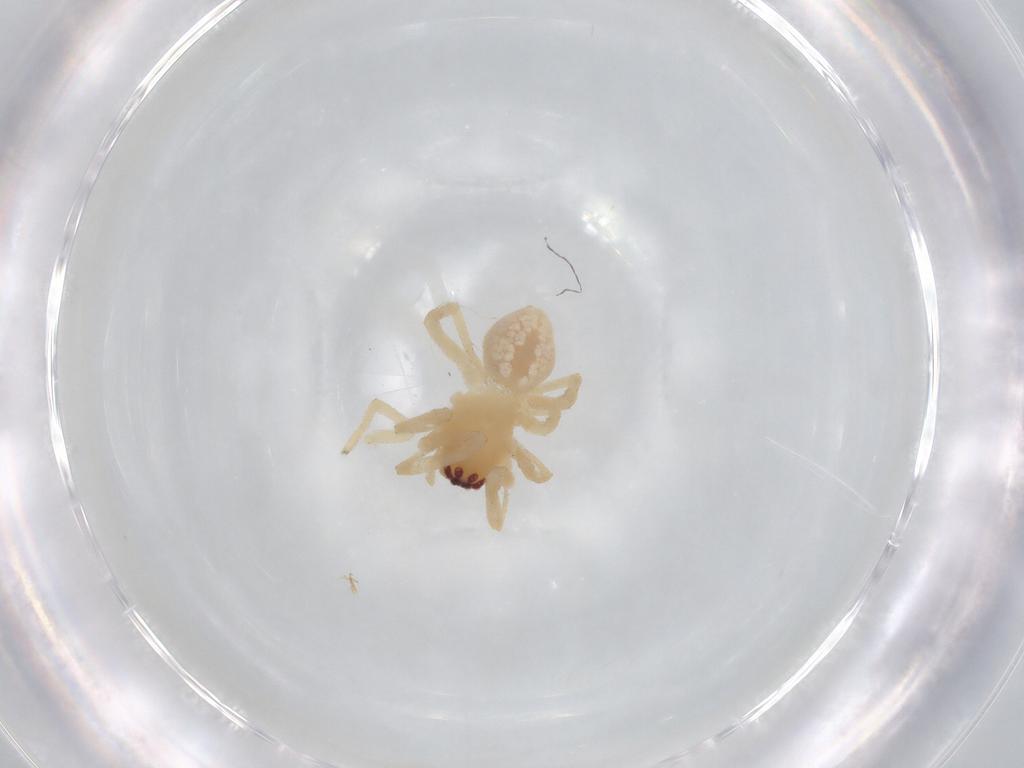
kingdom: Animalia
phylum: Arthropoda
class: Arachnida
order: Araneae
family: Cheiracanthiidae
